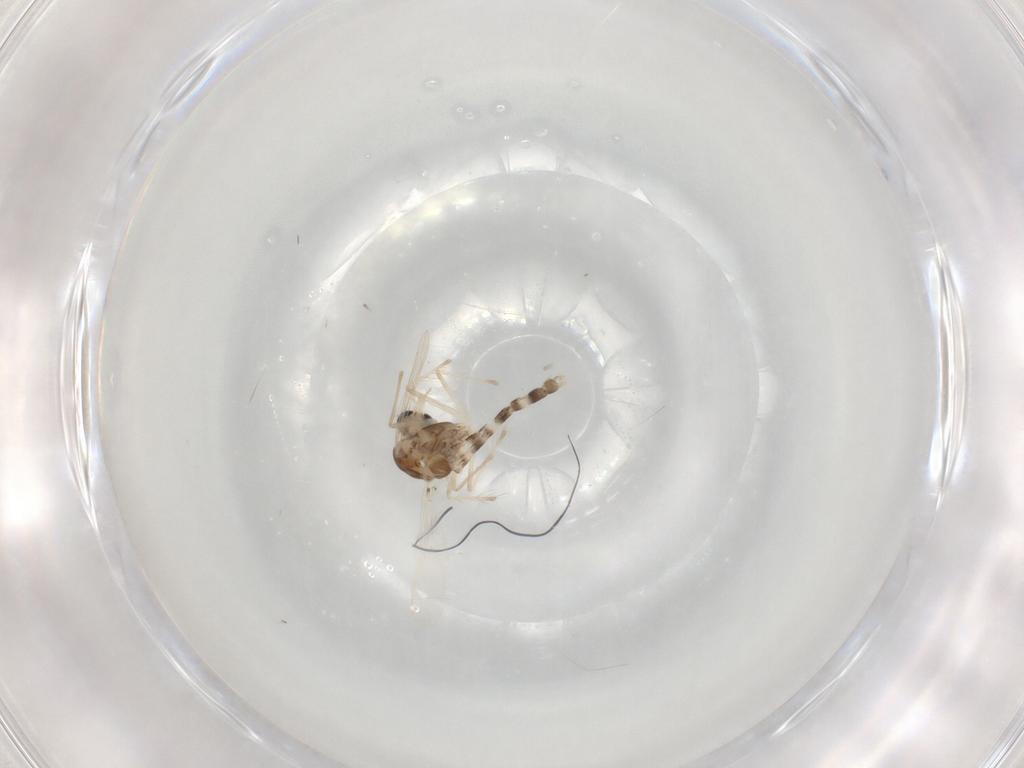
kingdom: Animalia
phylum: Arthropoda
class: Insecta
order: Diptera
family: Chironomidae
